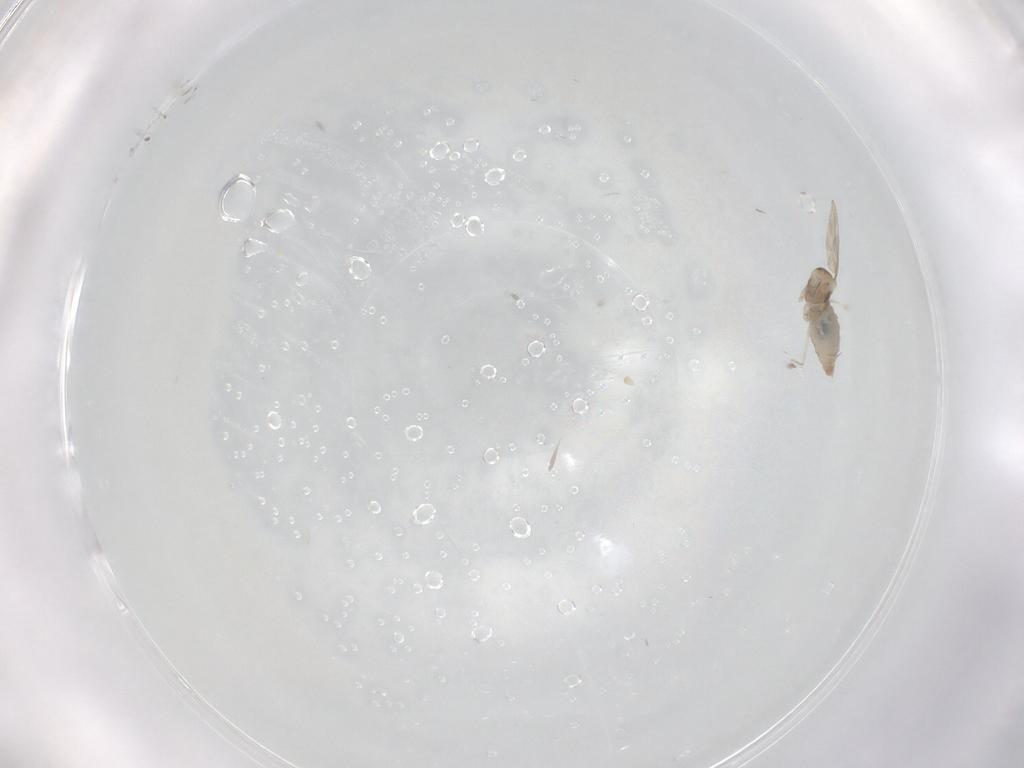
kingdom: Animalia
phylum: Arthropoda
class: Insecta
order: Diptera
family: Cecidomyiidae
